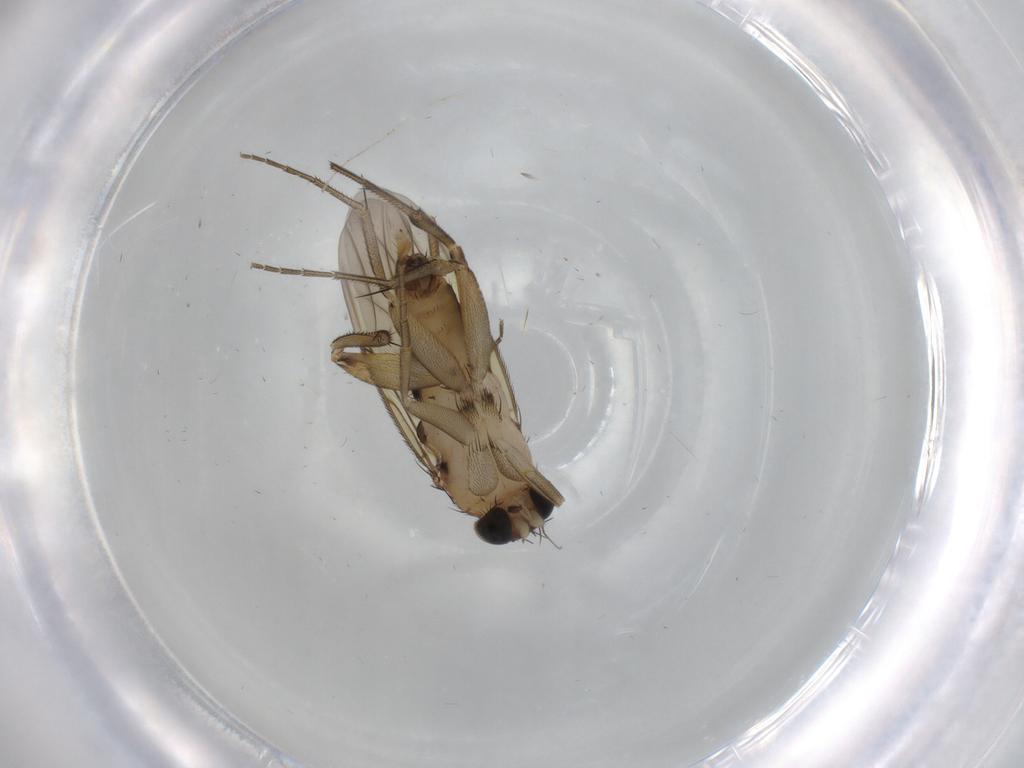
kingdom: Animalia
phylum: Arthropoda
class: Insecta
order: Diptera
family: Phoridae
